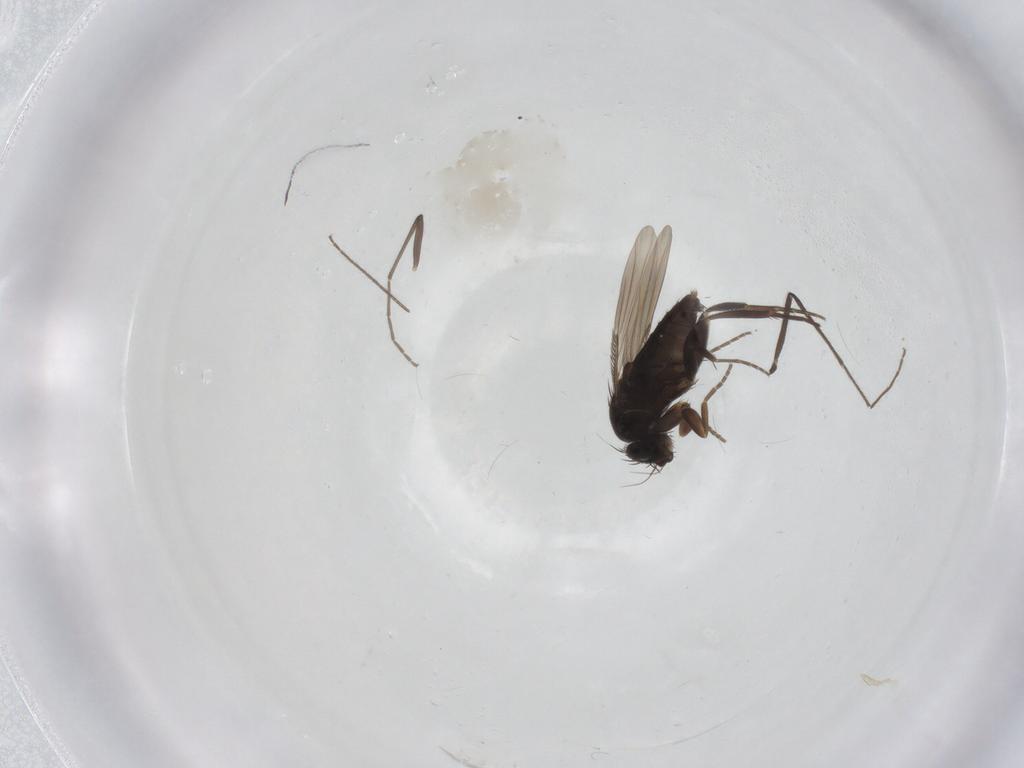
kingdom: Animalia
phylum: Arthropoda
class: Insecta
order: Diptera
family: Phoridae
